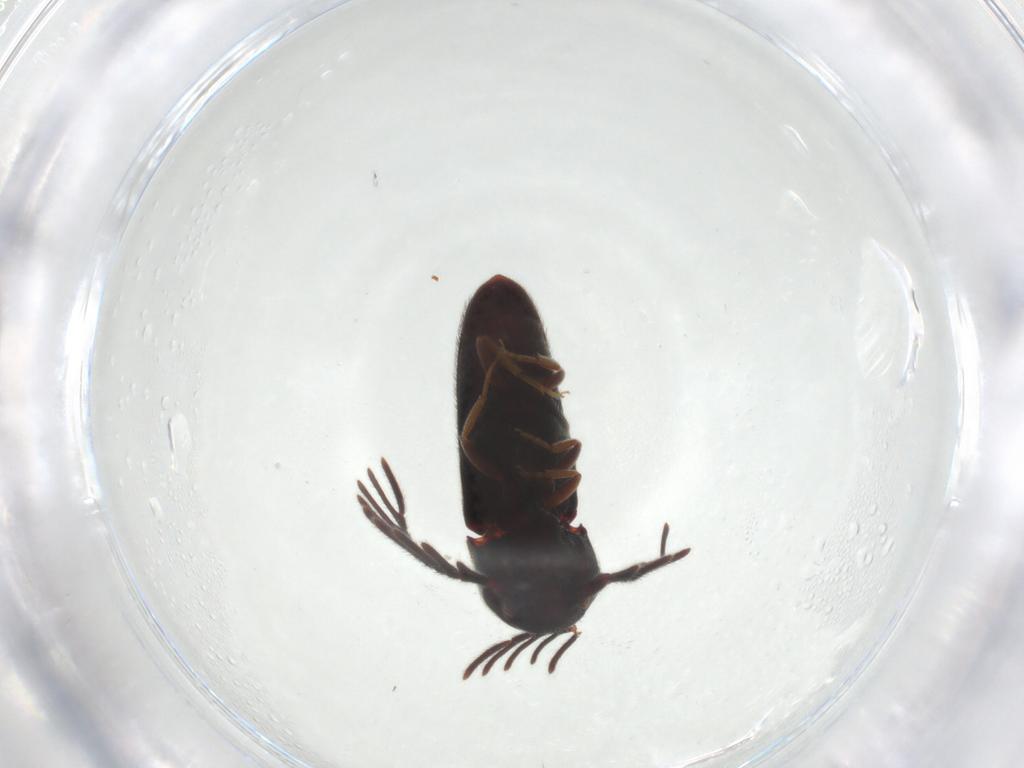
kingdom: Animalia
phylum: Arthropoda
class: Insecta
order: Coleoptera
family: Eucnemidae
